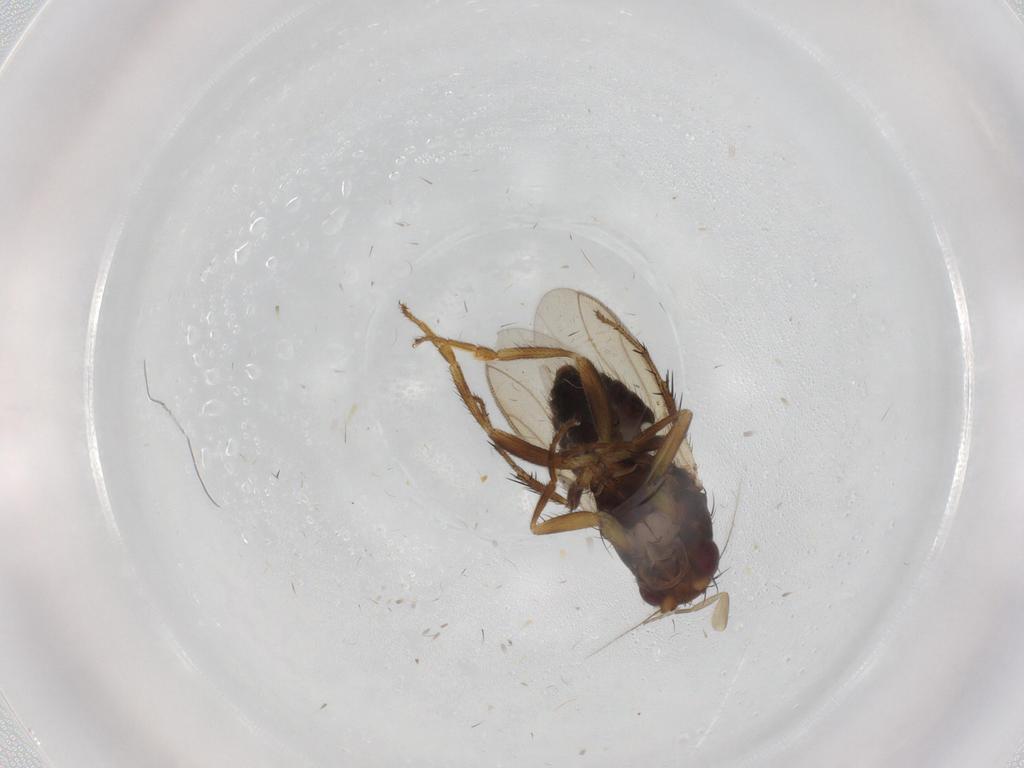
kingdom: Animalia
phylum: Arthropoda
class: Insecta
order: Diptera
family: Sphaeroceridae
